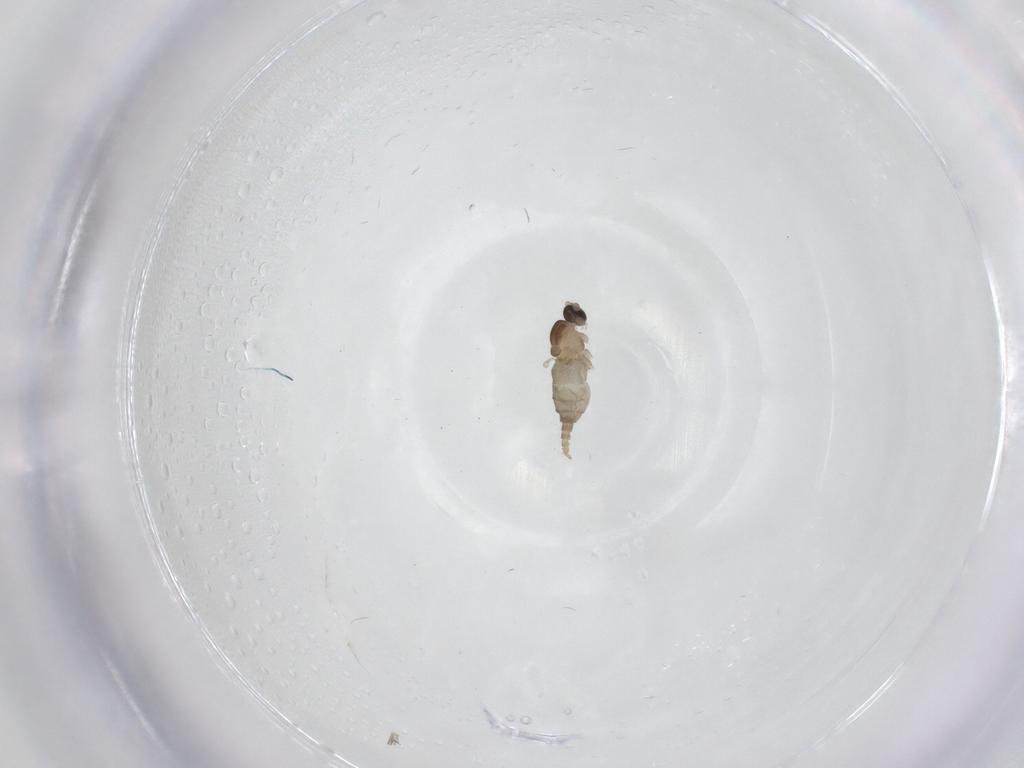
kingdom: Animalia
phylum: Arthropoda
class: Insecta
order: Diptera
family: Cecidomyiidae
